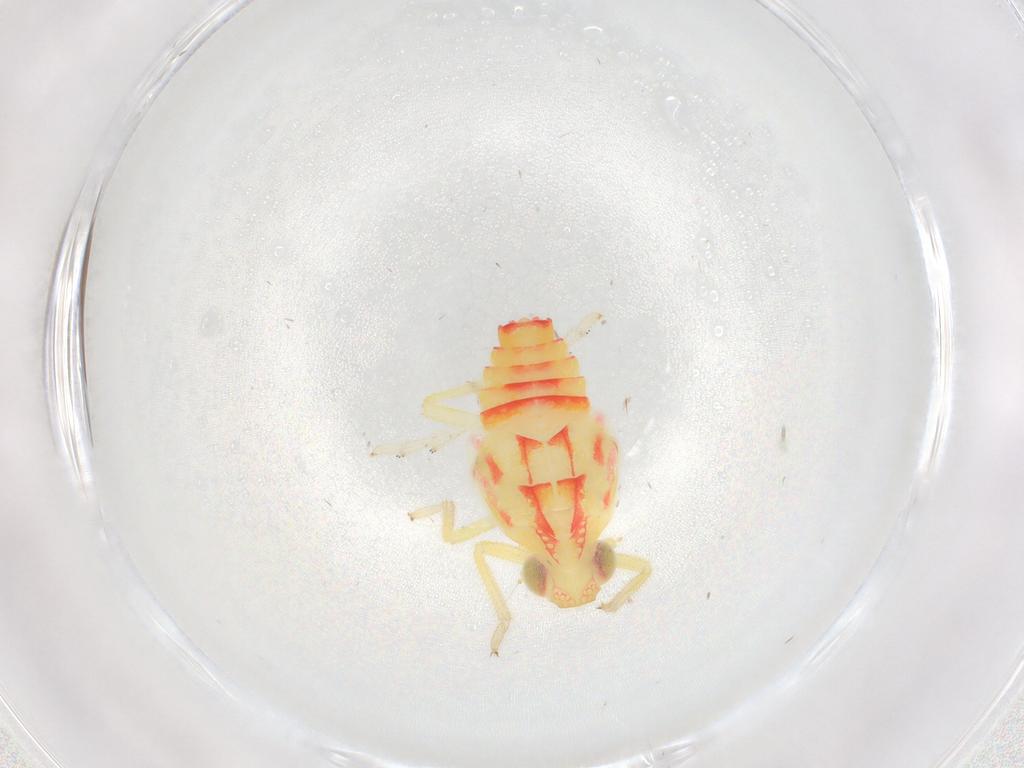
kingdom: Animalia
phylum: Arthropoda
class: Insecta
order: Hemiptera
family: Tropiduchidae
